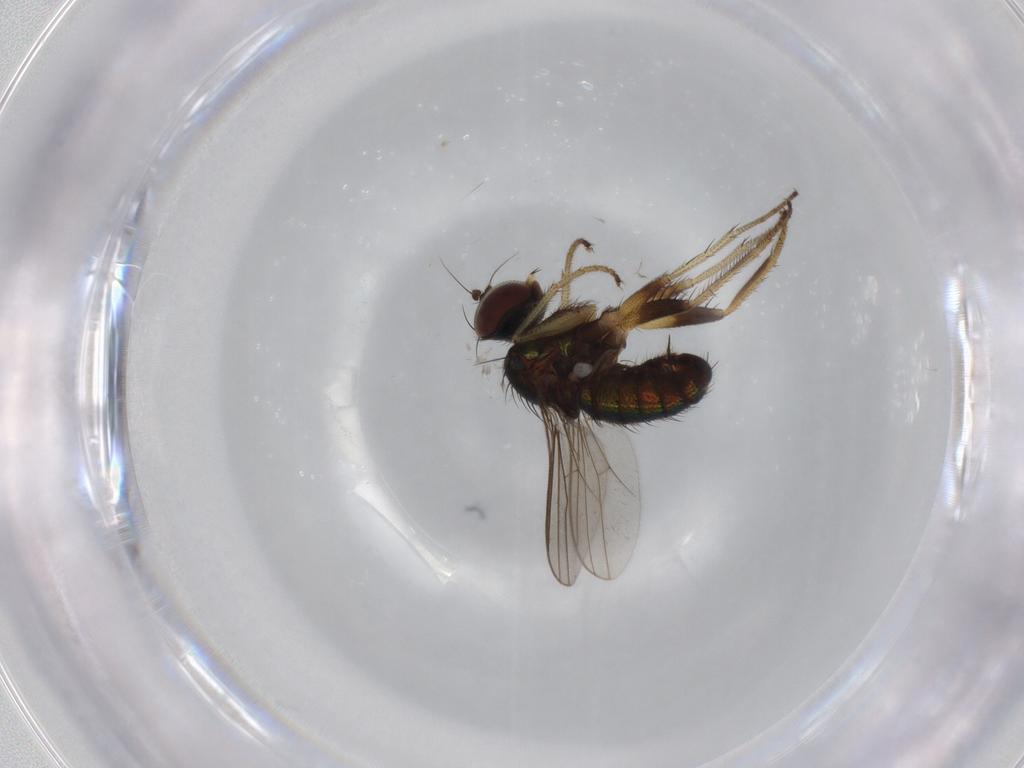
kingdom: Animalia
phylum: Arthropoda
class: Insecta
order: Diptera
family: Dolichopodidae
